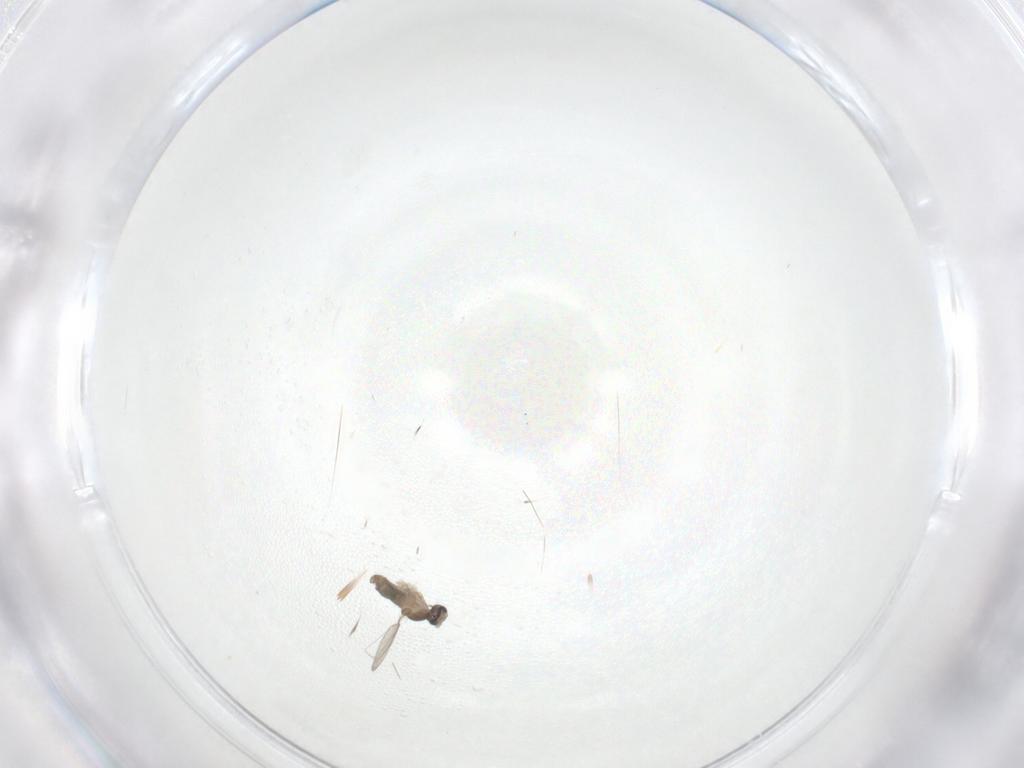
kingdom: Animalia
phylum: Arthropoda
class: Insecta
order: Diptera
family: Cecidomyiidae
